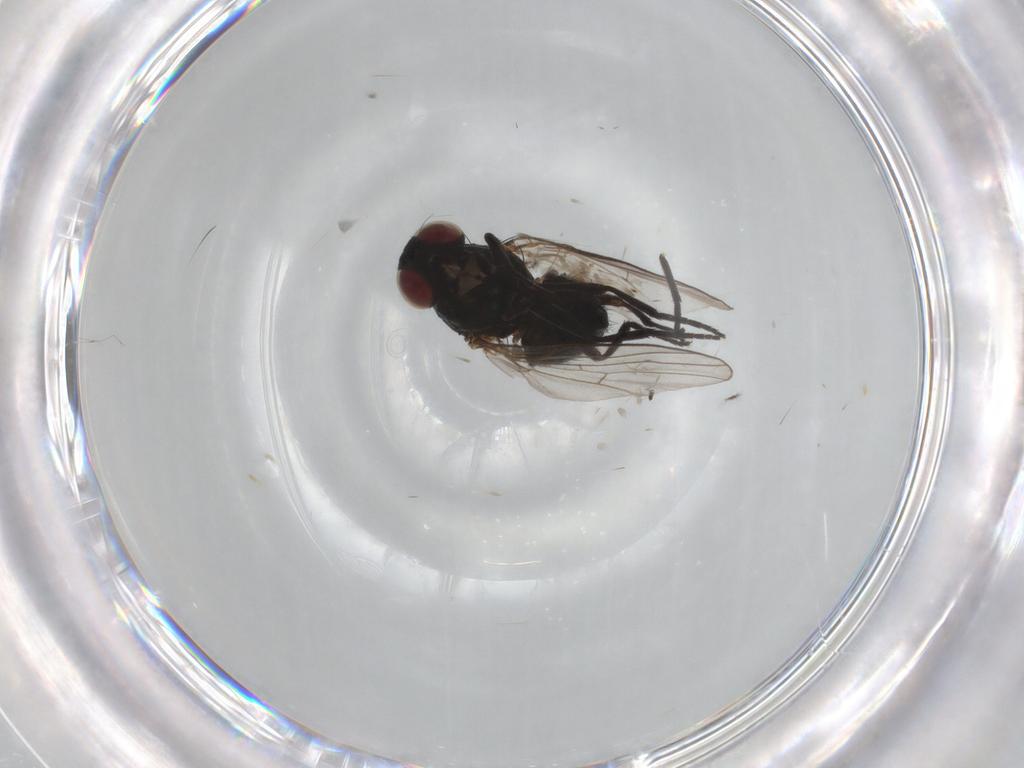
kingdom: Animalia
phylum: Arthropoda
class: Insecta
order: Diptera
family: Agromyzidae
